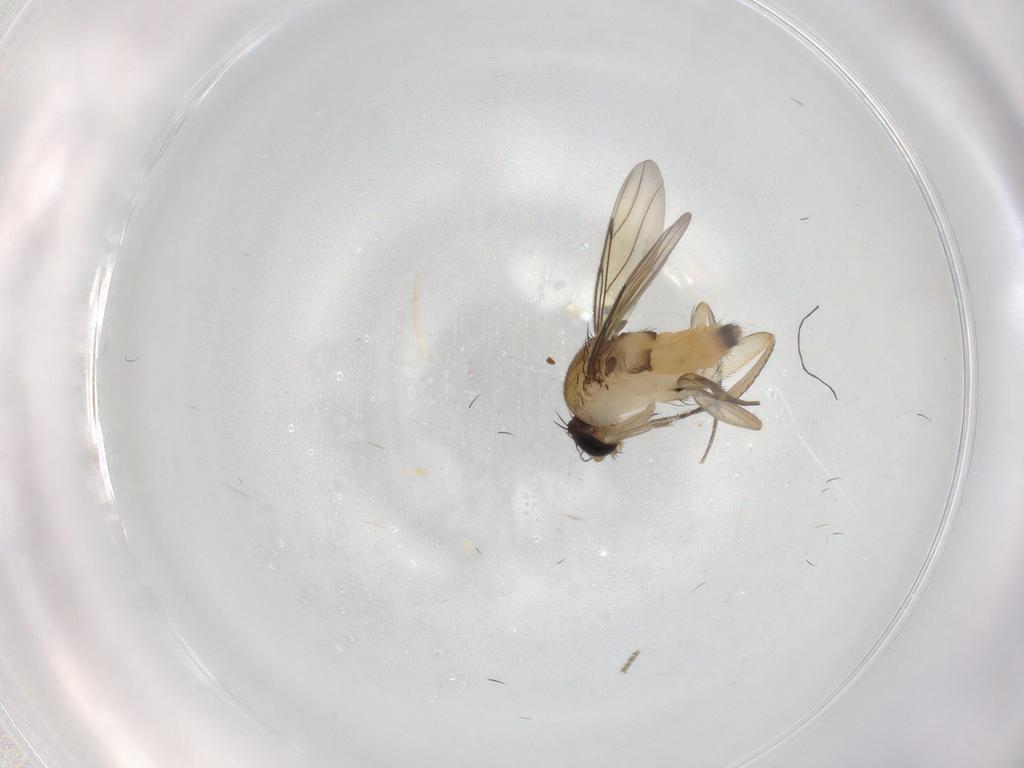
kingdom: Animalia
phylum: Arthropoda
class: Insecta
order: Diptera
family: Limoniidae
